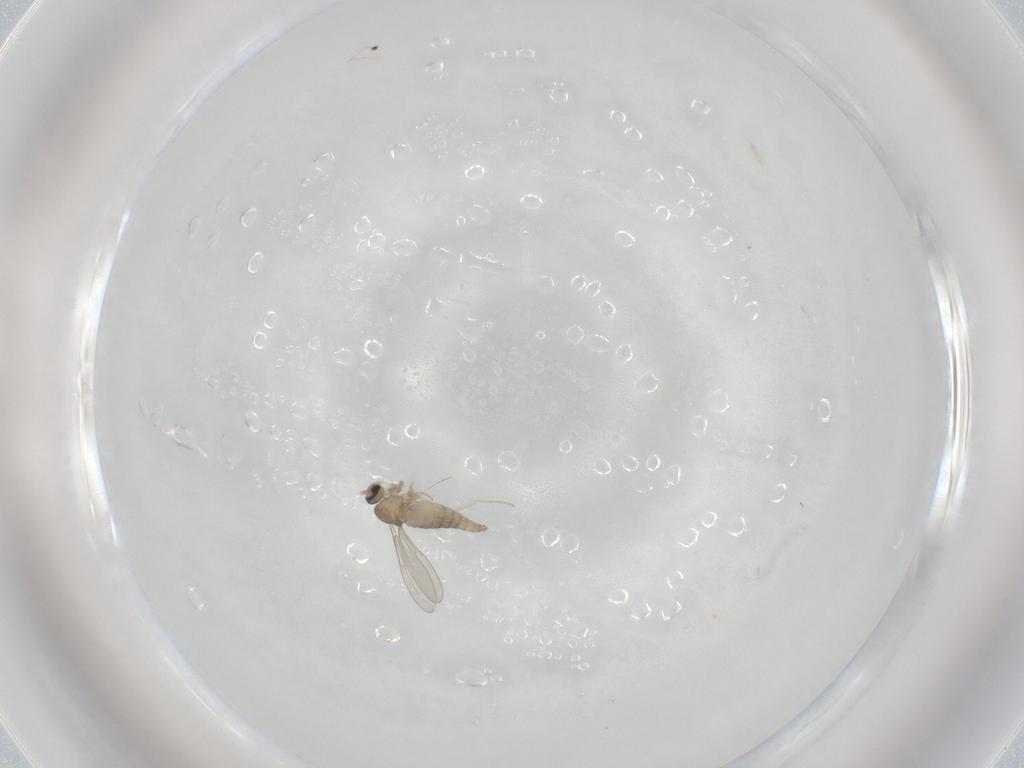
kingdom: Animalia
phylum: Arthropoda
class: Insecta
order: Diptera
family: Cecidomyiidae
